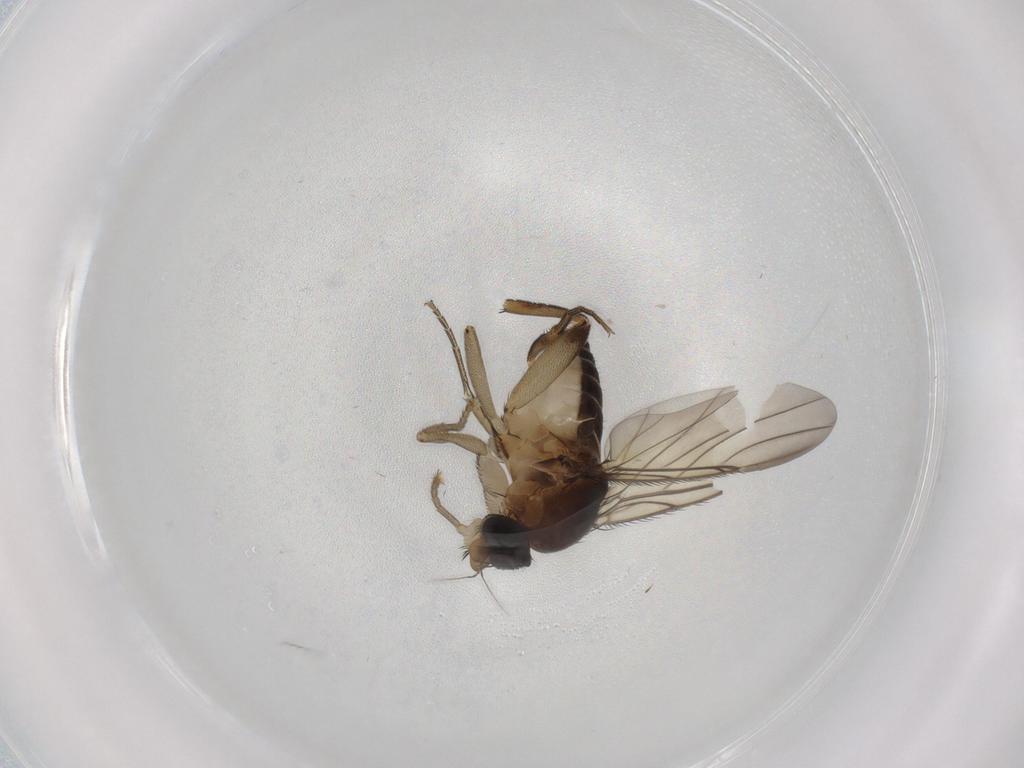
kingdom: Animalia
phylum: Arthropoda
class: Insecta
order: Diptera
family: Phoridae
